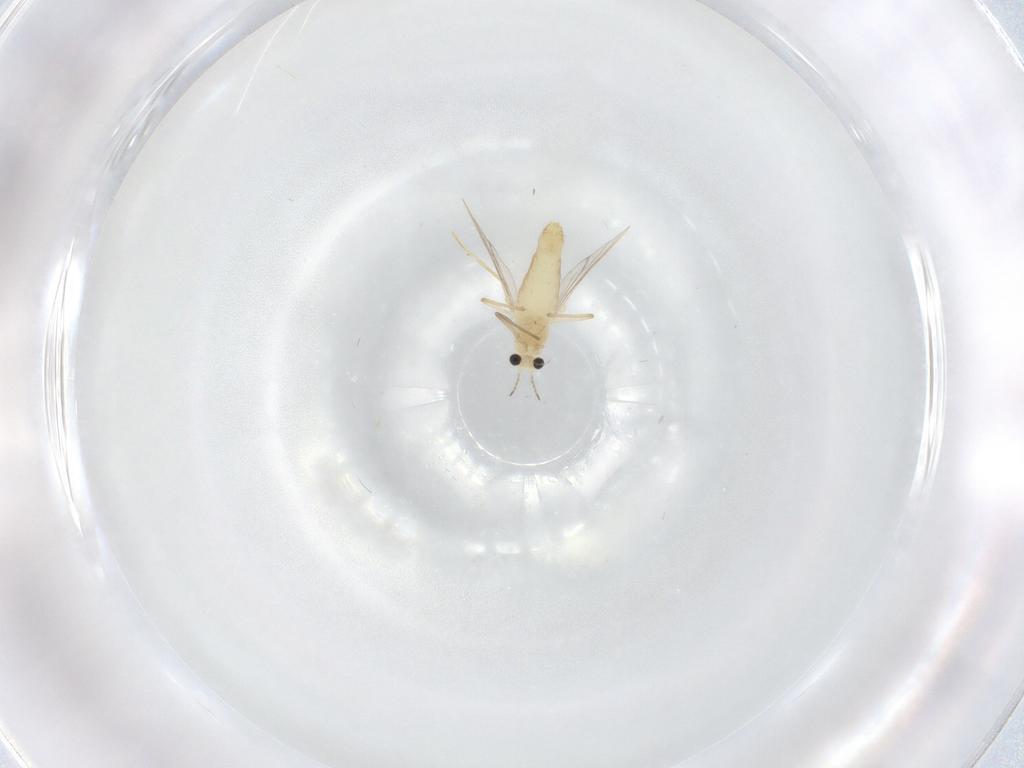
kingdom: Animalia
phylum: Arthropoda
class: Insecta
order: Diptera
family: Chironomidae
